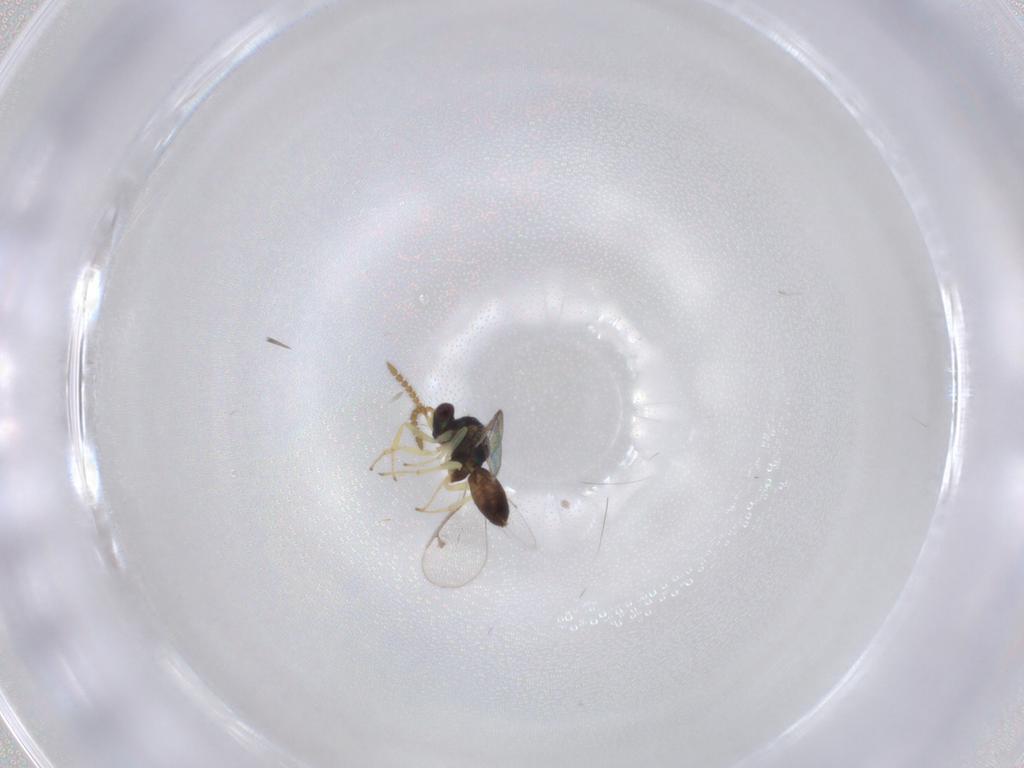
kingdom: Animalia
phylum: Arthropoda
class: Insecta
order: Hymenoptera
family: Pteromalidae
